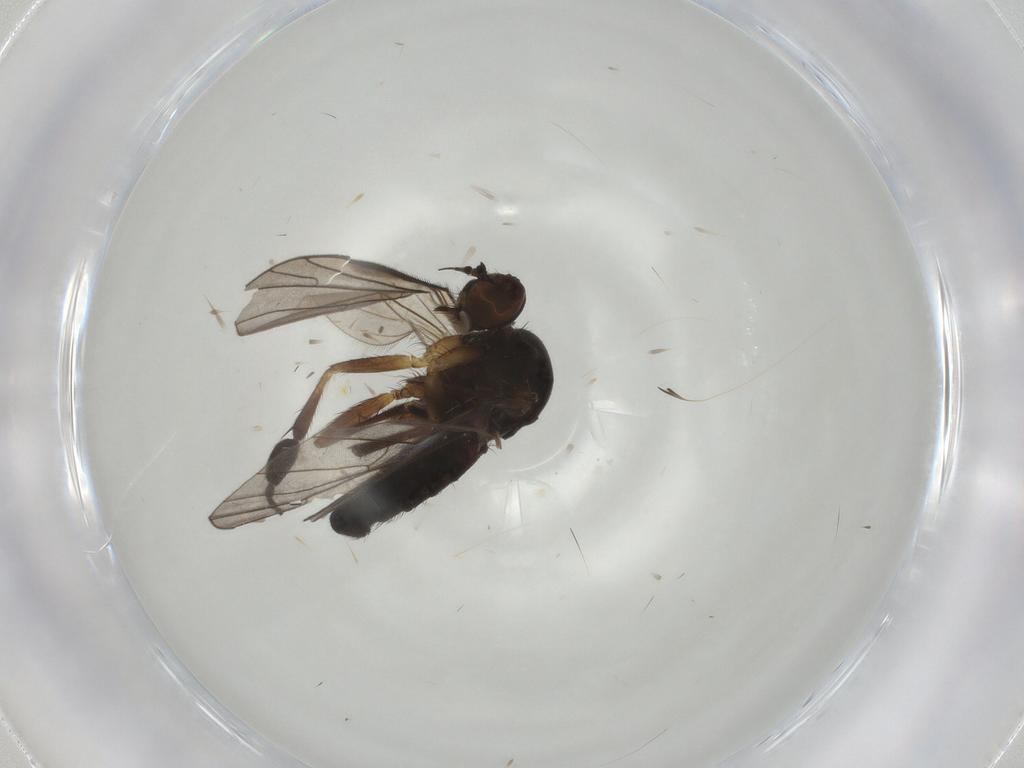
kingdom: Animalia
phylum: Arthropoda
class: Insecta
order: Diptera
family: Empididae
